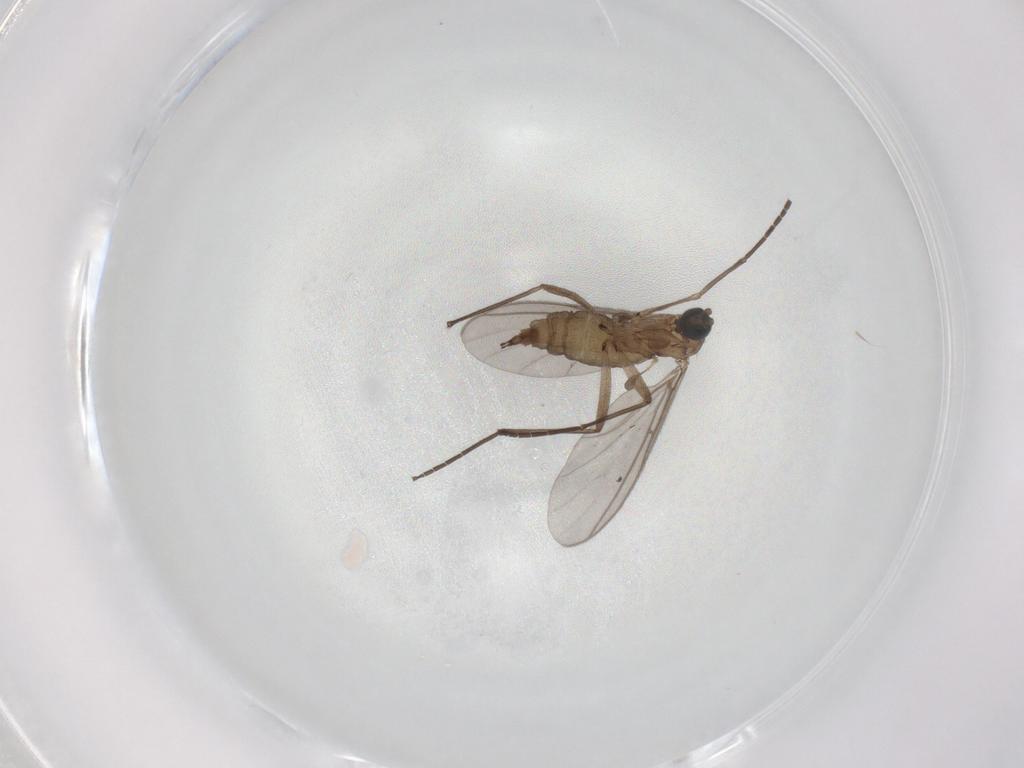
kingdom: Animalia
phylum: Arthropoda
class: Insecta
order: Diptera
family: Sciaridae
